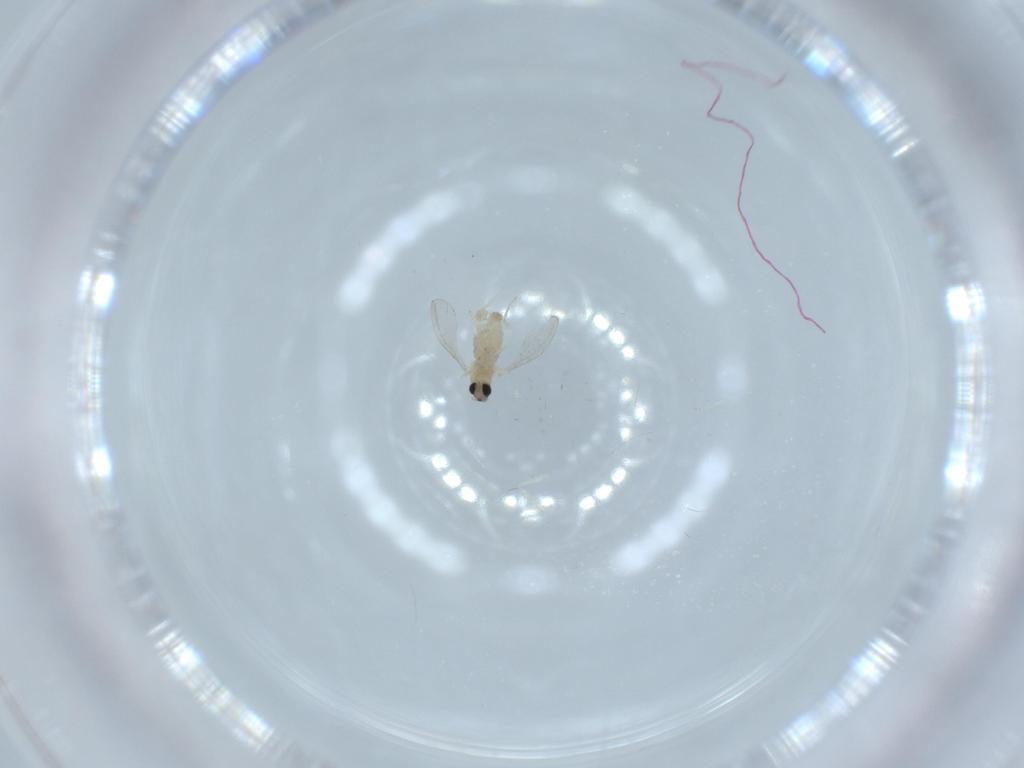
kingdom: Animalia
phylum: Arthropoda
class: Insecta
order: Diptera
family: Cecidomyiidae
